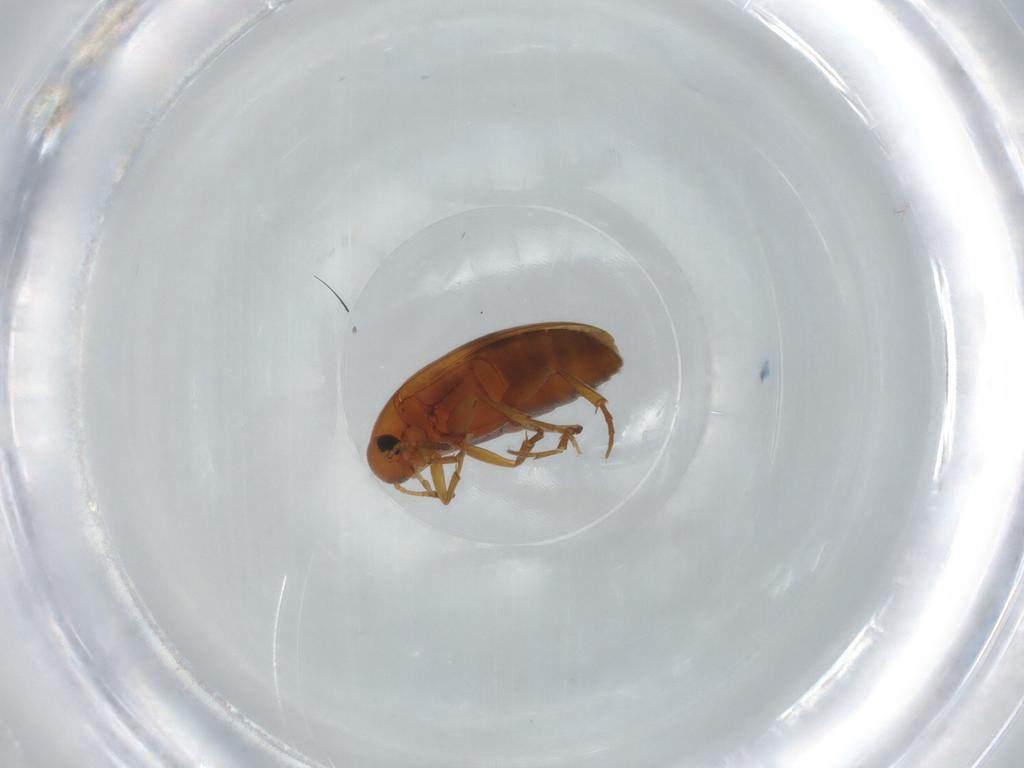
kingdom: Animalia
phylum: Arthropoda
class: Insecta
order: Coleoptera
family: Scraptiidae
